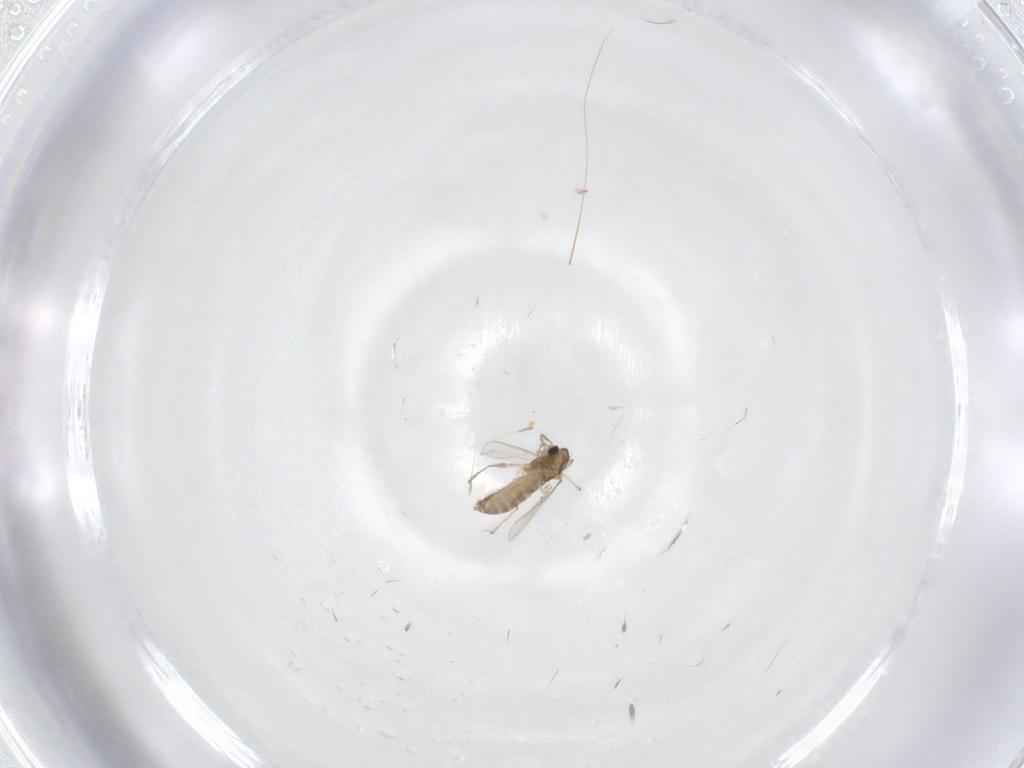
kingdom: Animalia
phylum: Arthropoda
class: Insecta
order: Diptera
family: Chironomidae
